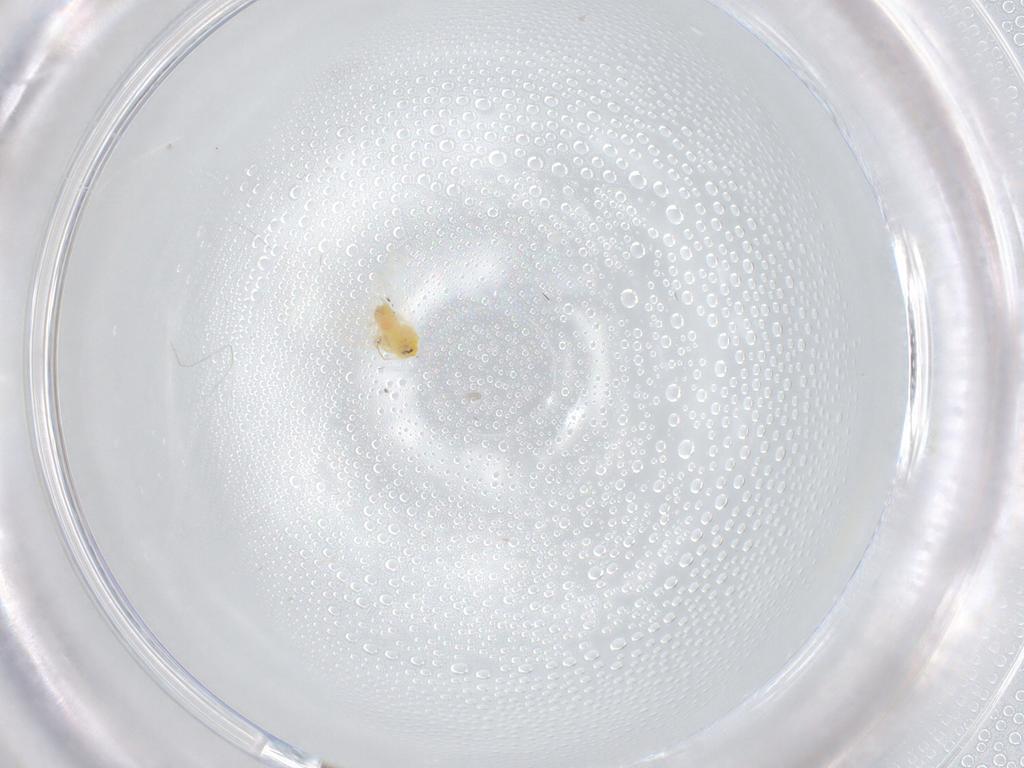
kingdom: Animalia
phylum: Arthropoda
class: Insecta
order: Hemiptera
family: Aleyrodidae
